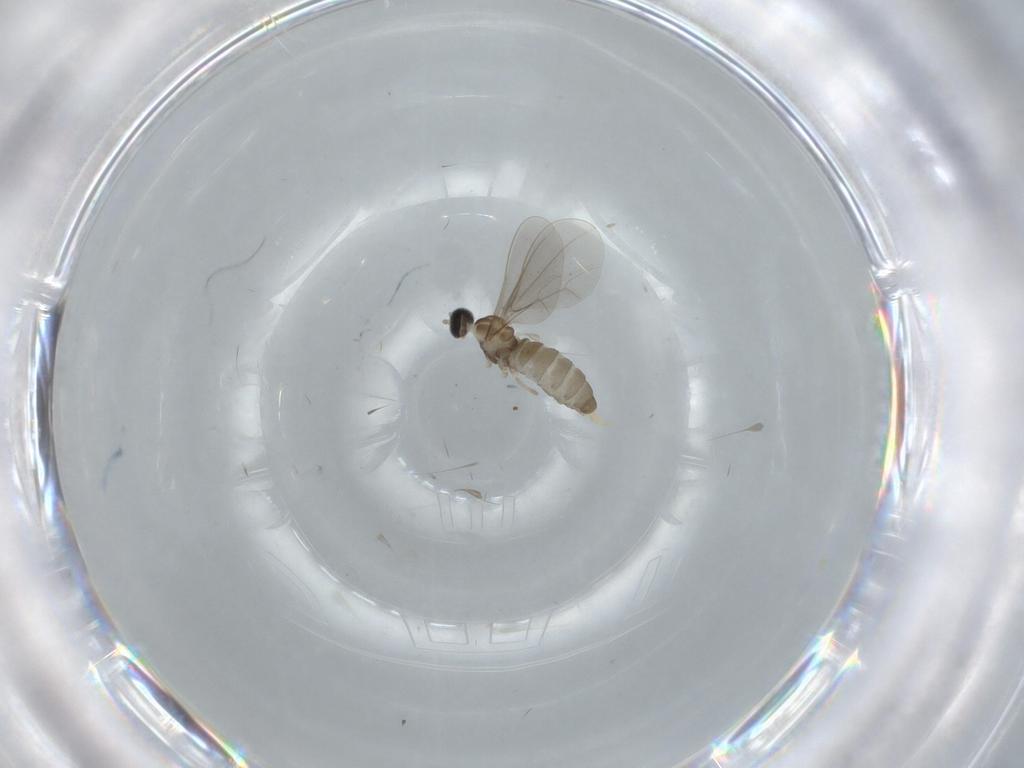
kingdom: Animalia
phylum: Arthropoda
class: Insecta
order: Diptera
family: Cecidomyiidae
